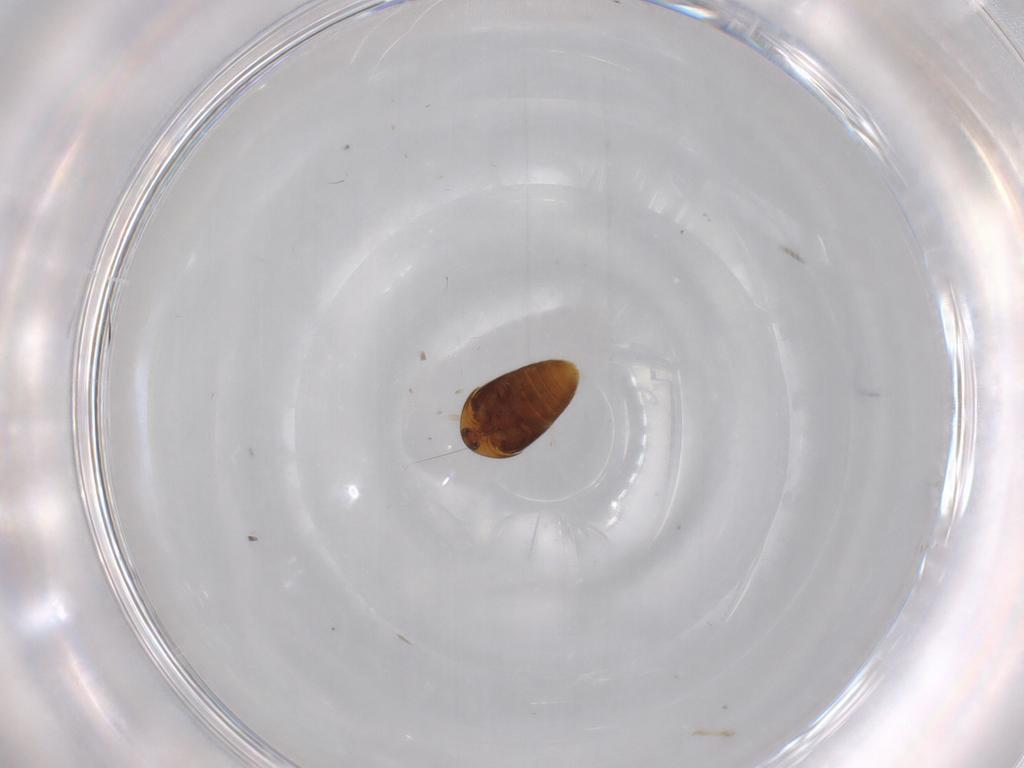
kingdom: Animalia
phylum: Arthropoda
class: Insecta
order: Coleoptera
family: Corylophidae
